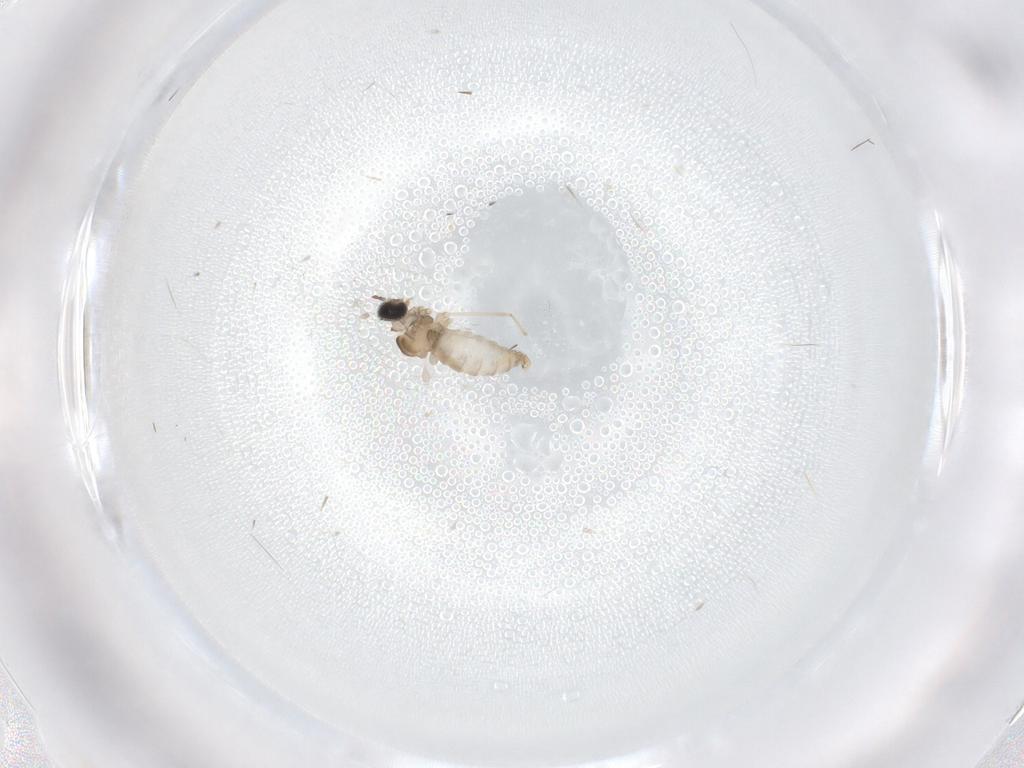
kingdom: Animalia
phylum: Arthropoda
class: Insecta
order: Diptera
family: Cecidomyiidae
